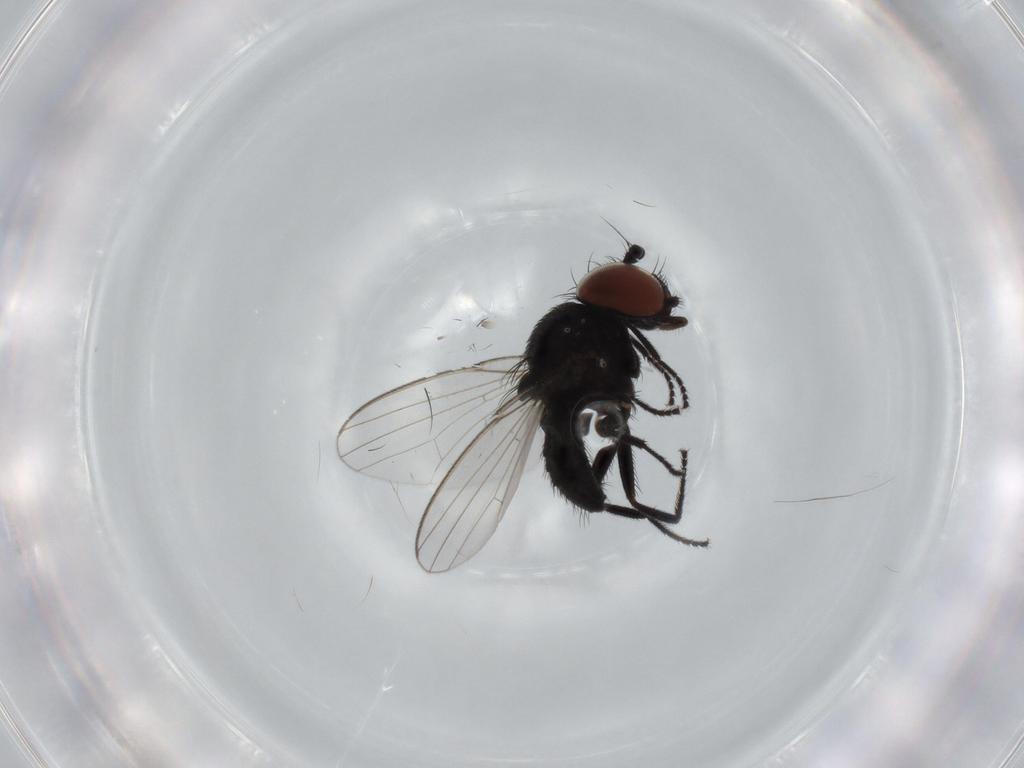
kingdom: Animalia
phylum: Arthropoda
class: Insecta
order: Diptera
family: Milichiidae
